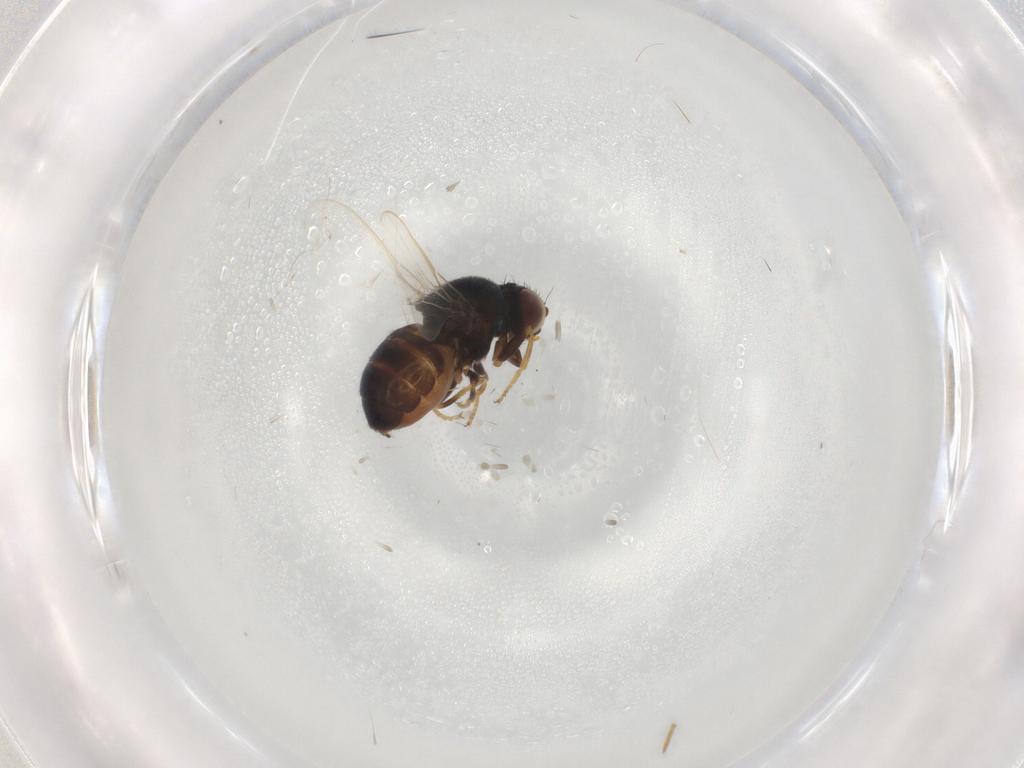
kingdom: Animalia
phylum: Arthropoda
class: Insecta
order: Diptera
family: Chloropidae
